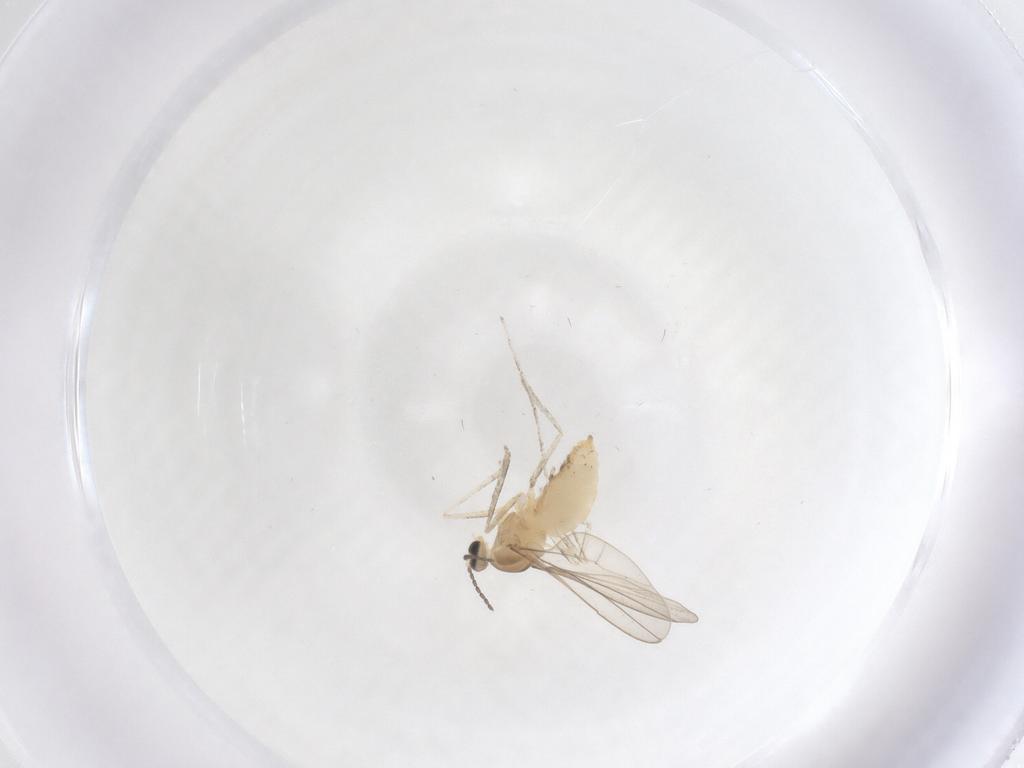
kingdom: Animalia
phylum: Arthropoda
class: Insecta
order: Diptera
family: Cecidomyiidae
